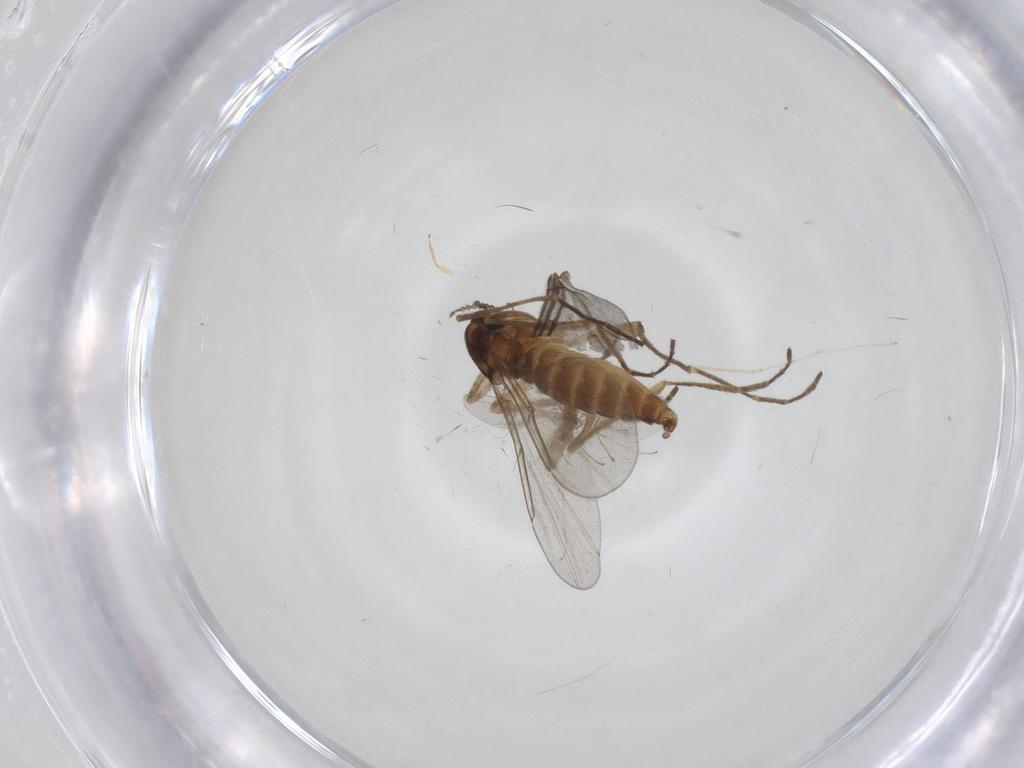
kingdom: Animalia
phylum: Arthropoda
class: Insecta
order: Diptera
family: Cecidomyiidae
